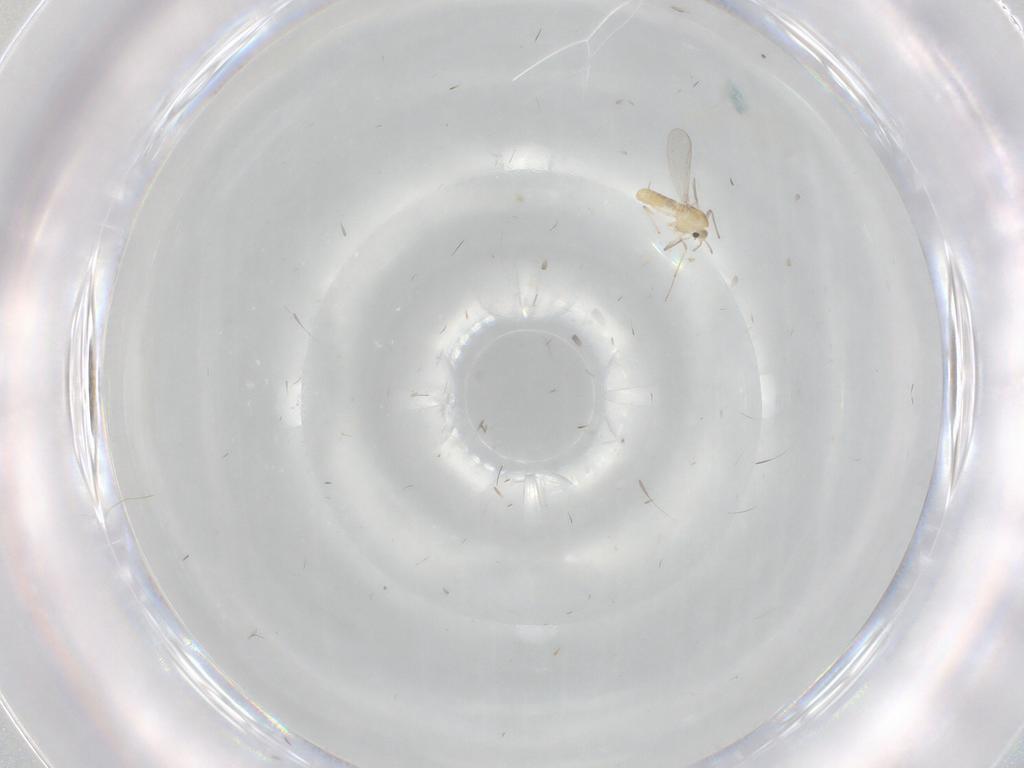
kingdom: Animalia
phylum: Arthropoda
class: Insecta
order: Diptera
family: Chironomidae
